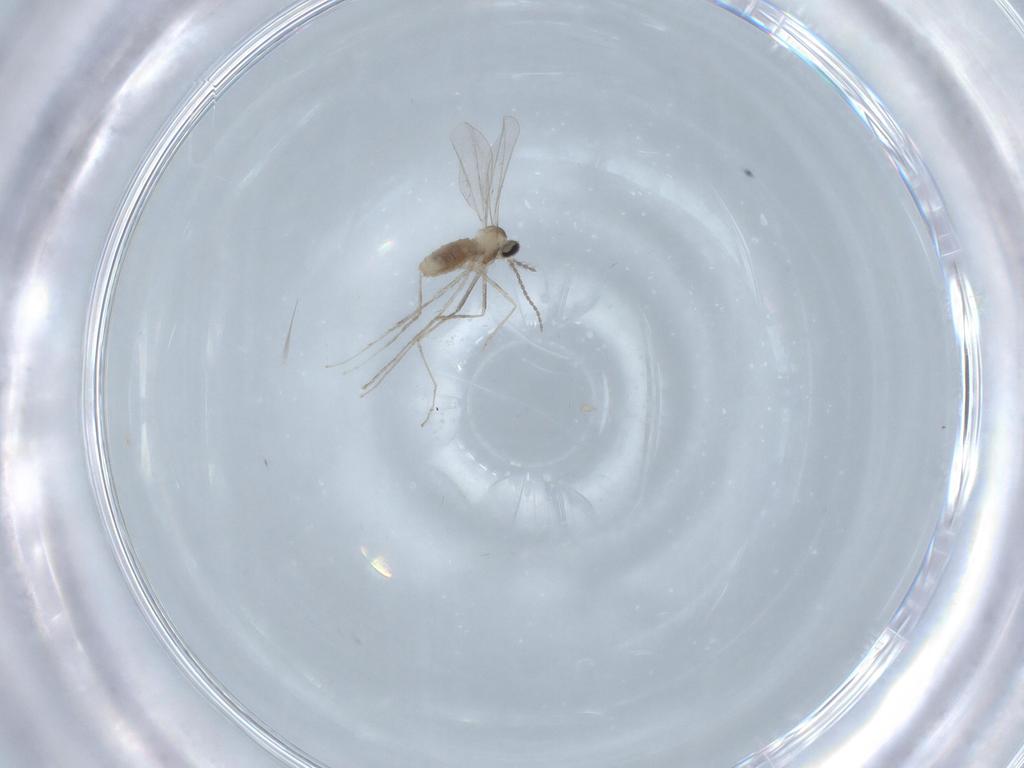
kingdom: Animalia
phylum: Arthropoda
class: Insecta
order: Diptera
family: Cecidomyiidae
